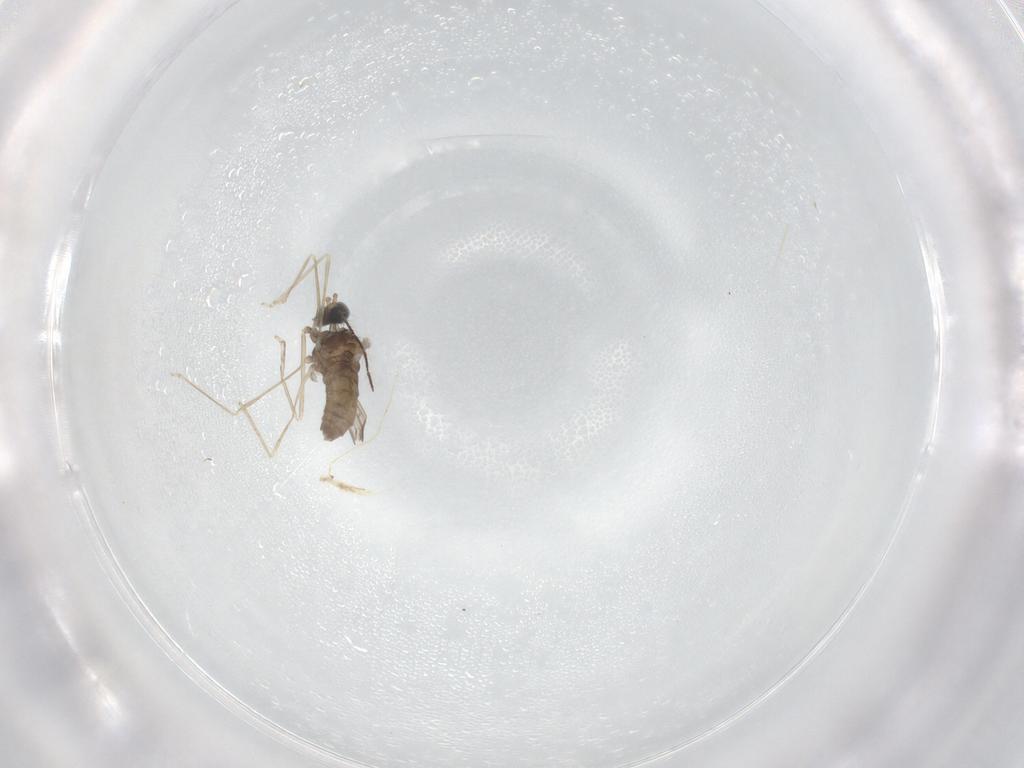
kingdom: Animalia
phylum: Arthropoda
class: Insecta
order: Diptera
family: Cecidomyiidae
